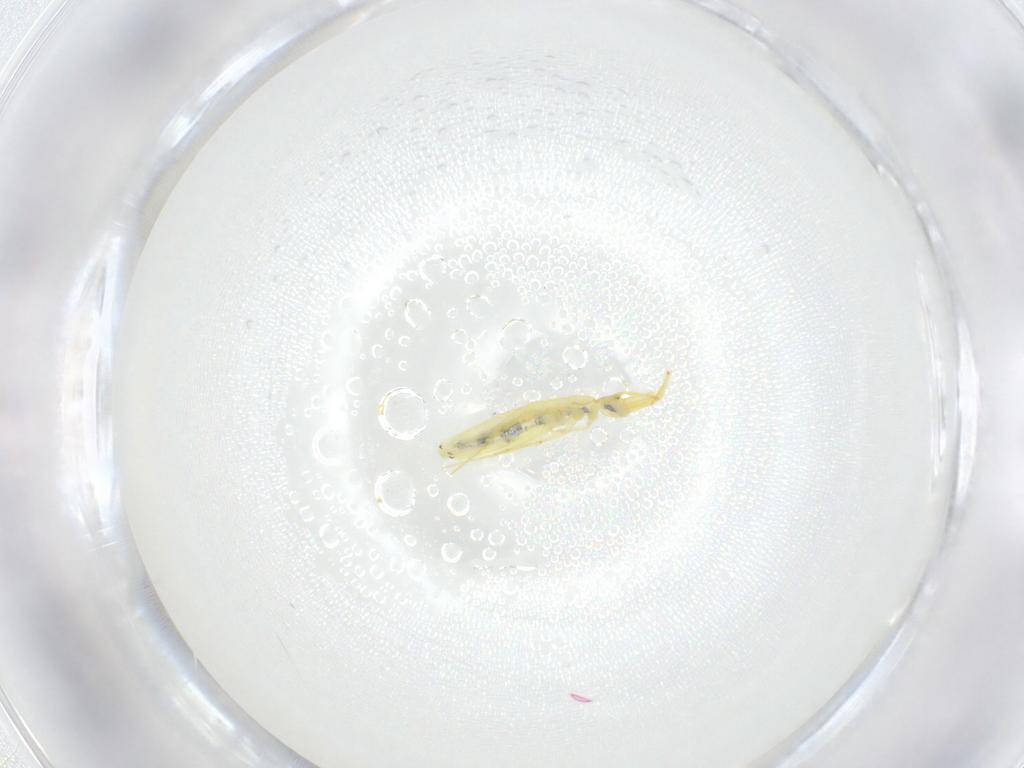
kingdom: Animalia
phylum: Arthropoda
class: Collembola
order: Entomobryomorpha
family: Entomobryidae
